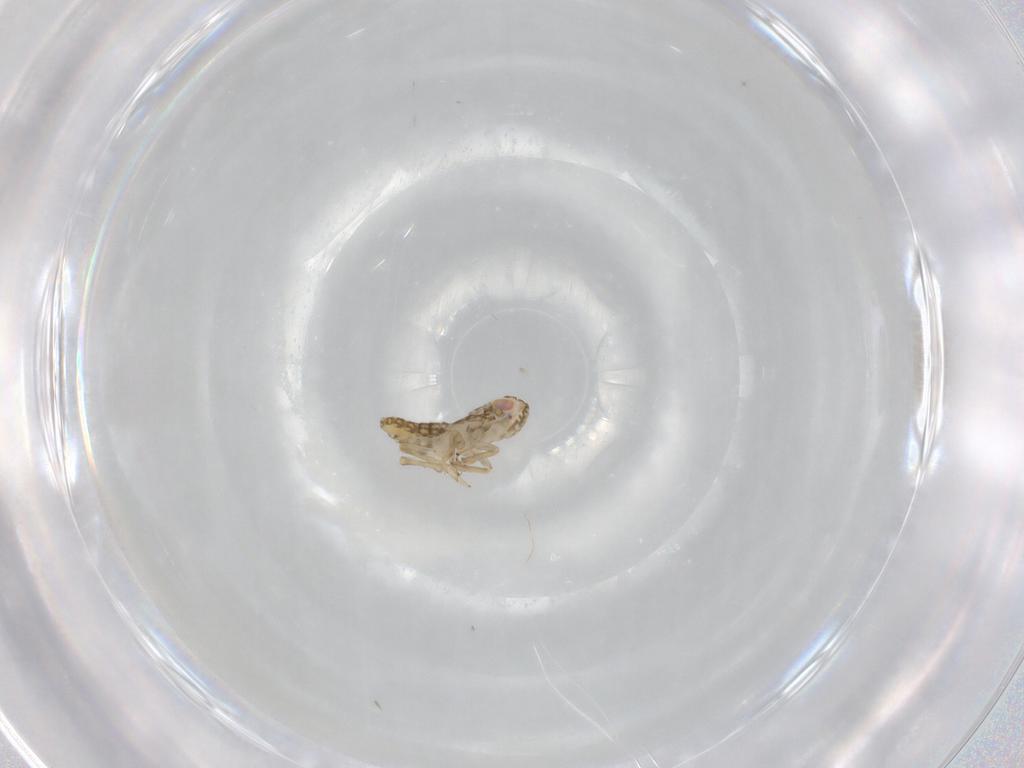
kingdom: Animalia
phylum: Arthropoda
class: Insecta
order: Hemiptera
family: Delphacidae
